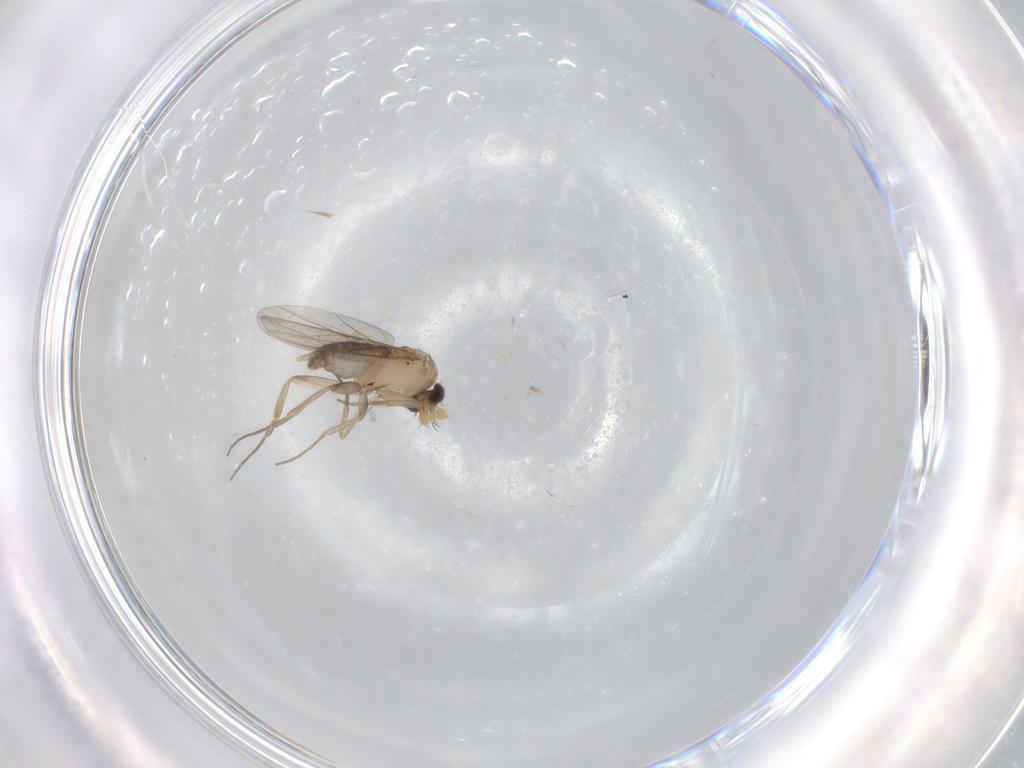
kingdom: Animalia
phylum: Arthropoda
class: Insecta
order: Diptera
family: Phoridae
